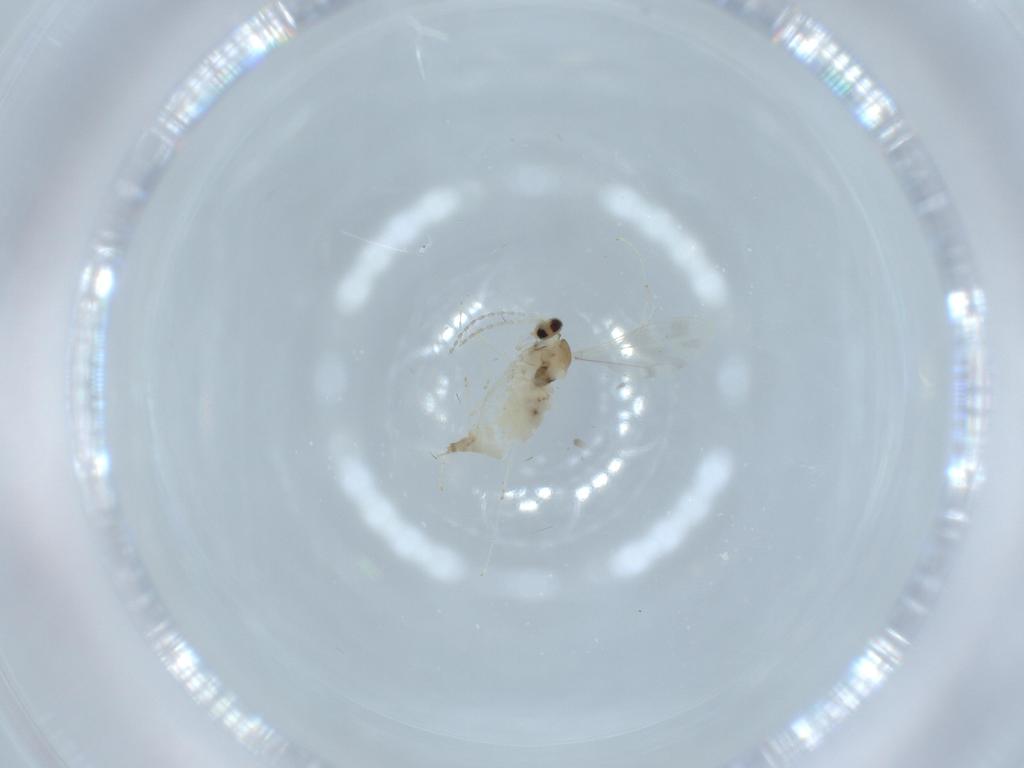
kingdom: Animalia
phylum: Arthropoda
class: Insecta
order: Diptera
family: Cecidomyiidae
